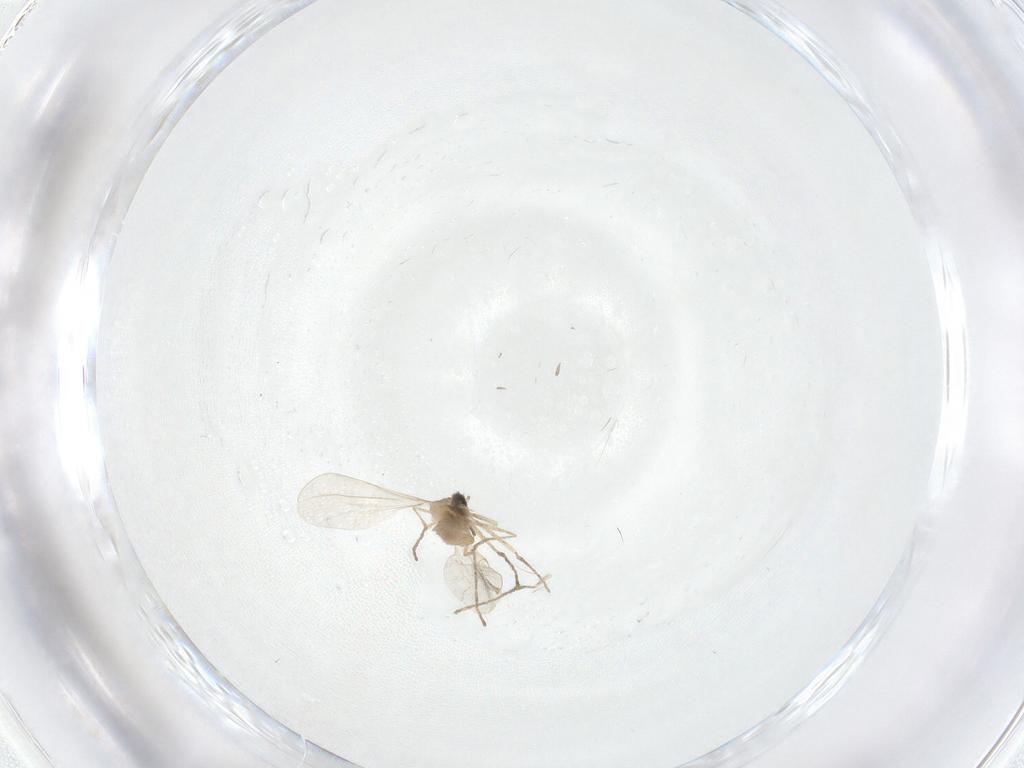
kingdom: Animalia
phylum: Arthropoda
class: Insecta
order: Diptera
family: Cecidomyiidae
